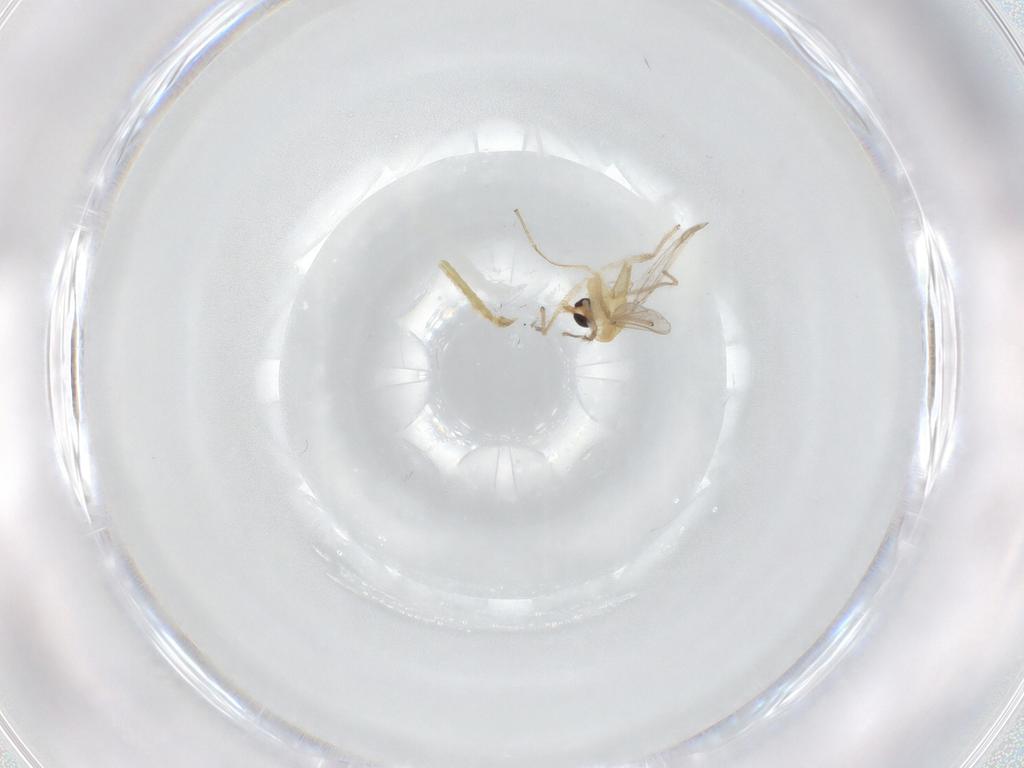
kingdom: Animalia
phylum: Arthropoda
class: Insecta
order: Diptera
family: Chironomidae
